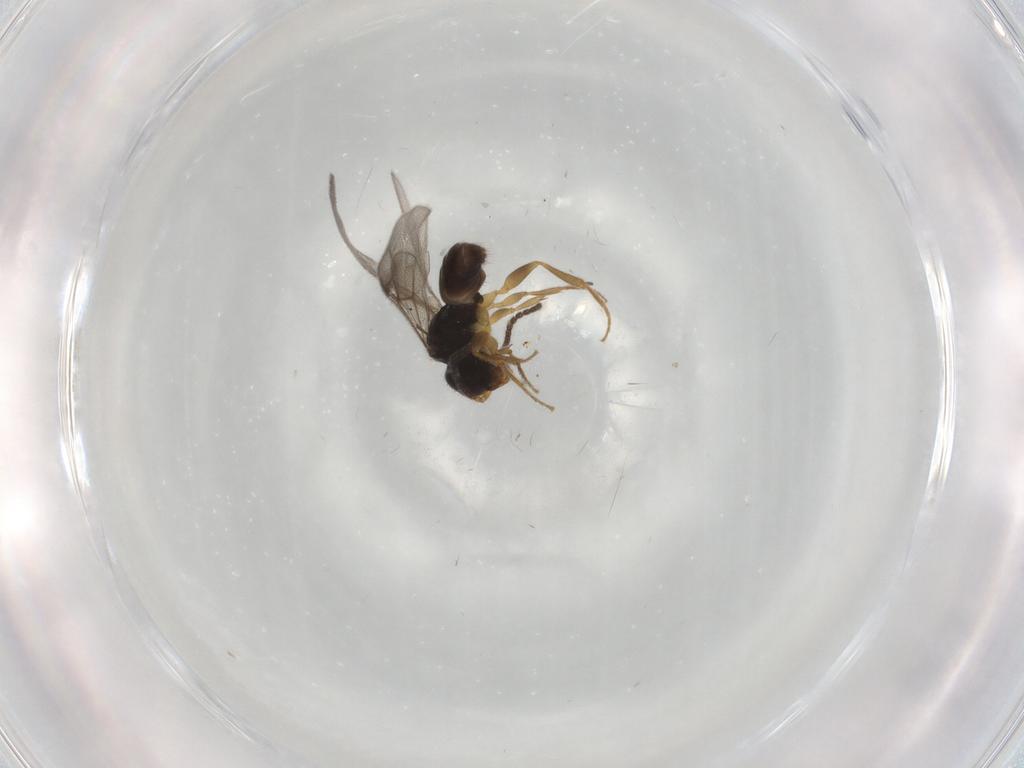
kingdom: Animalia
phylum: Arthropoda
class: Insecta
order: Hymenoptera
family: Bethylidae
